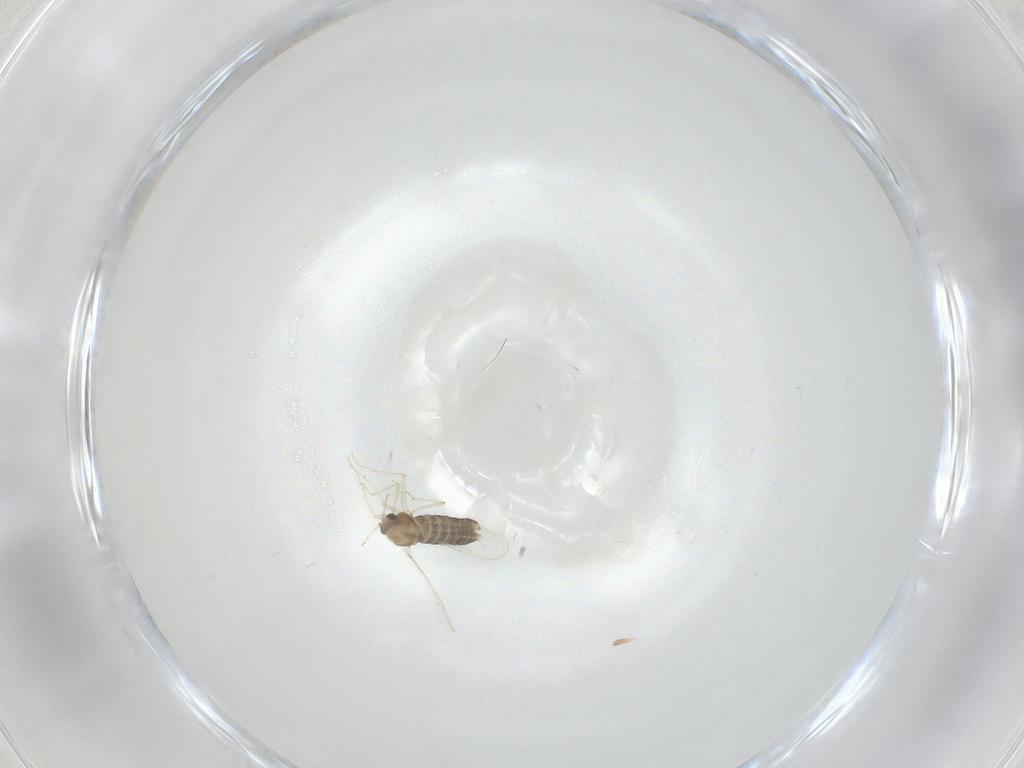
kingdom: Animalia
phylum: Arthropoda
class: Insecta
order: Diptera
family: Chironomidae
